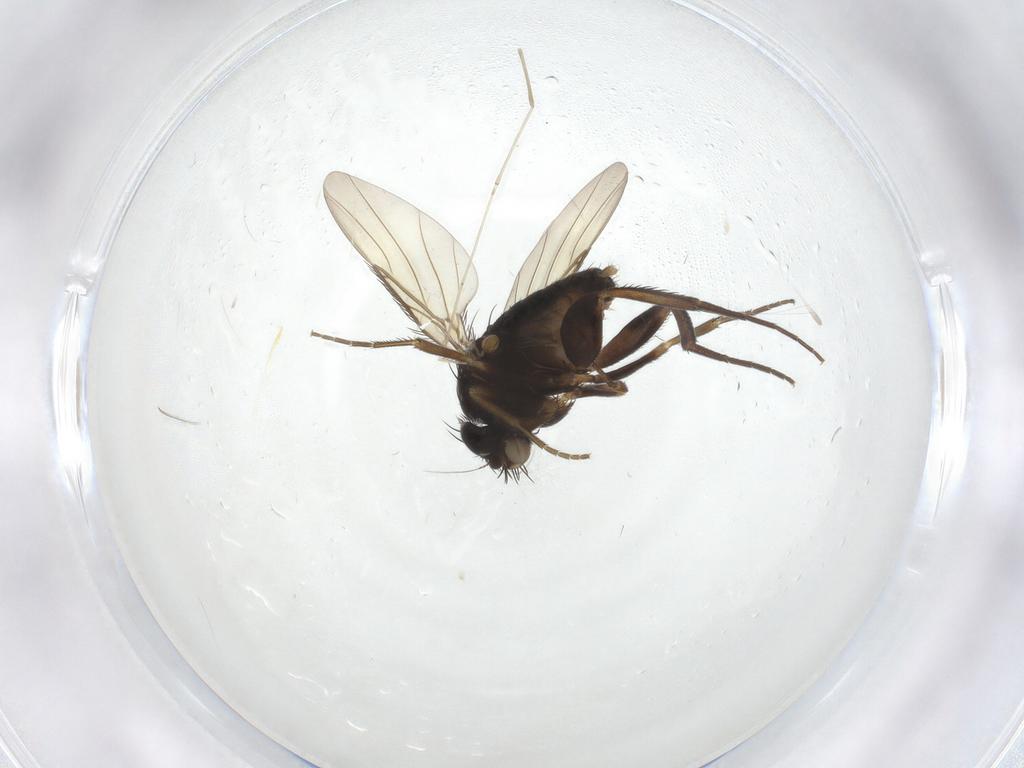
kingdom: Animalia
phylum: Arthropoda
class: Insecta
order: Diptera
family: Phoridae
